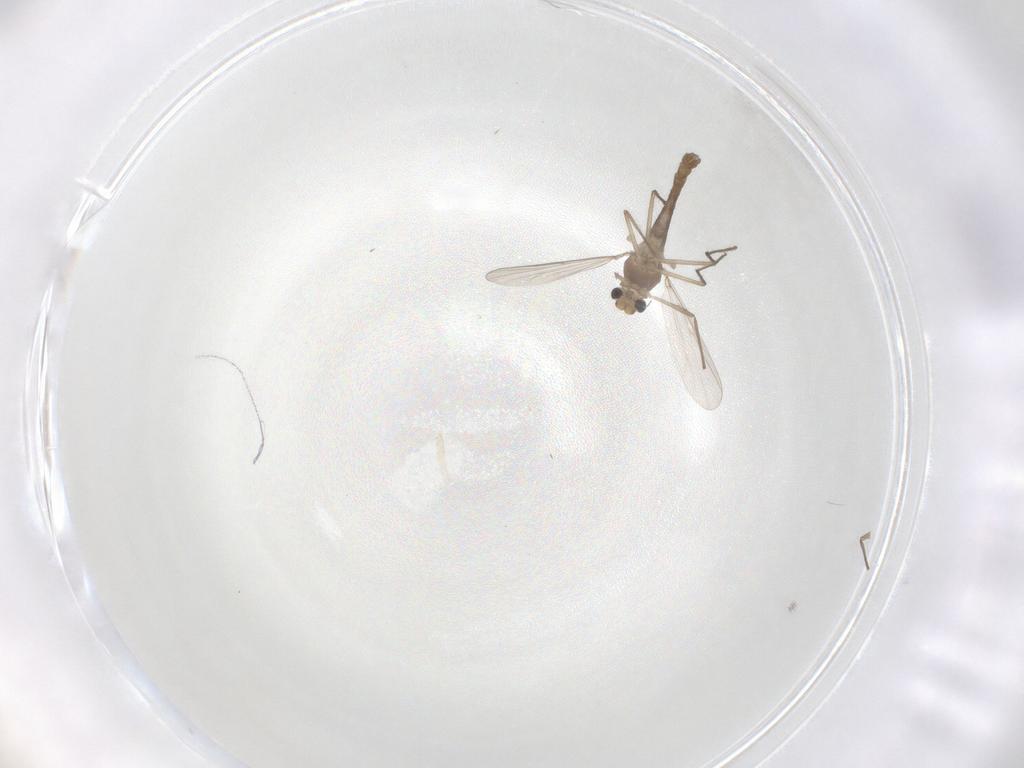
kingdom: Animalia
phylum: Arthropoda
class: Insecta
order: Diptera
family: Chironomidae
